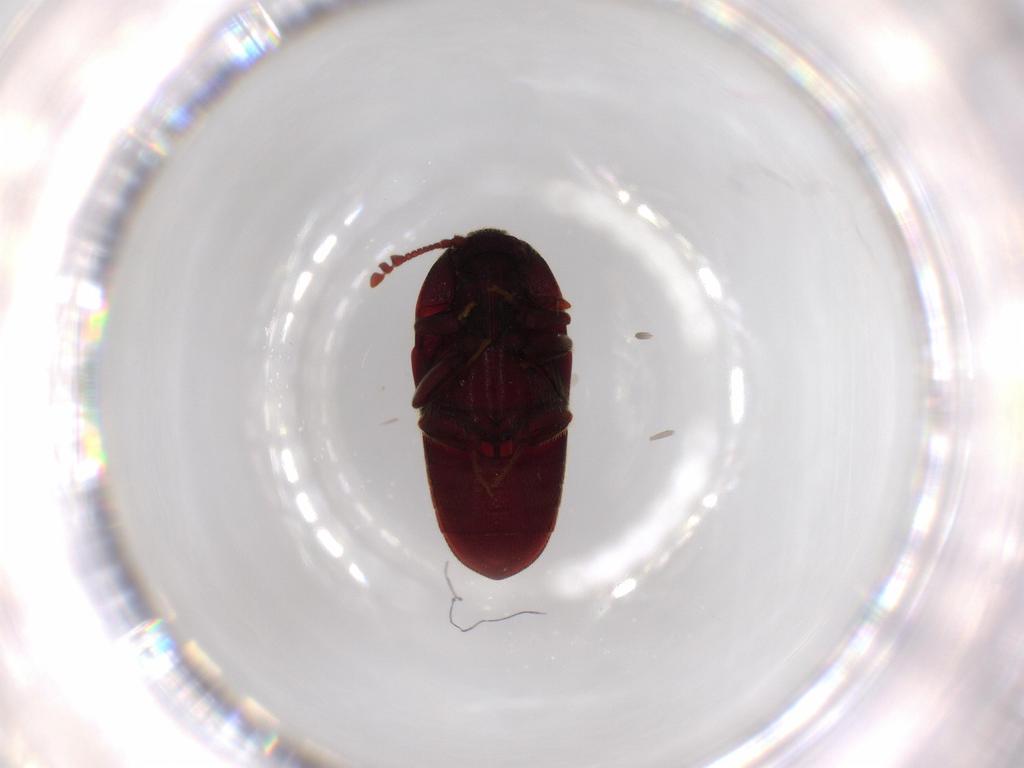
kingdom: Animalia
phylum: Arthropoda
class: Insecta
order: Coleoptera
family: Throscidae
